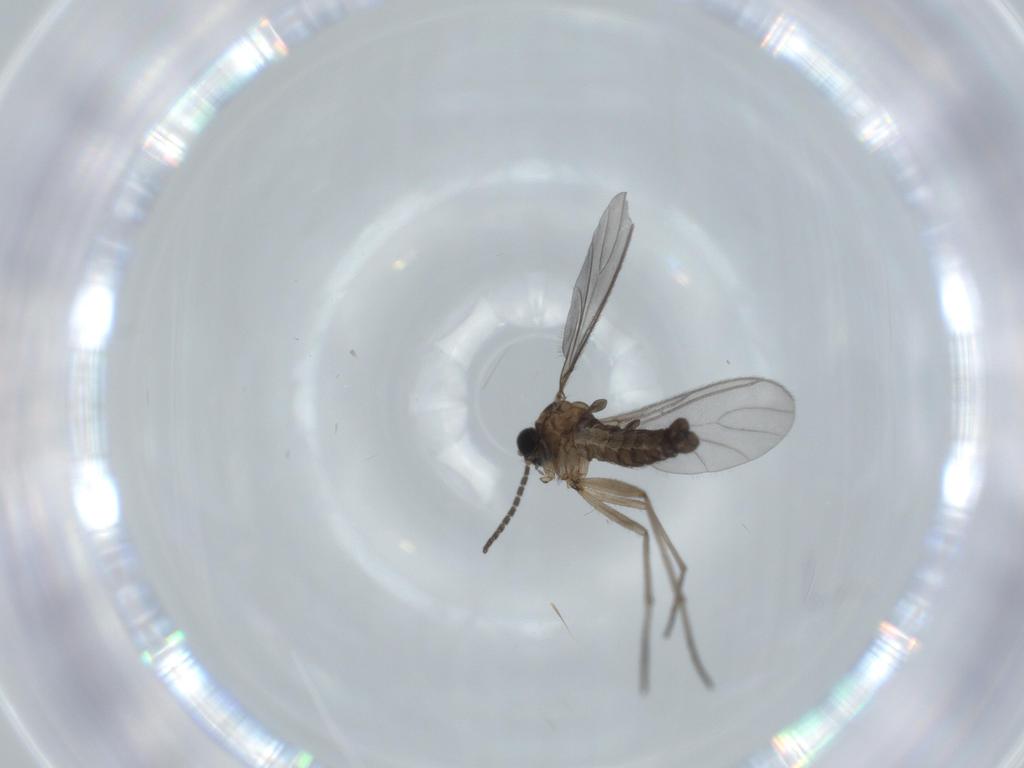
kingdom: Animalia
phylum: Arthropoda
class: Insecta
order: Diptera
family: Sciaridae
